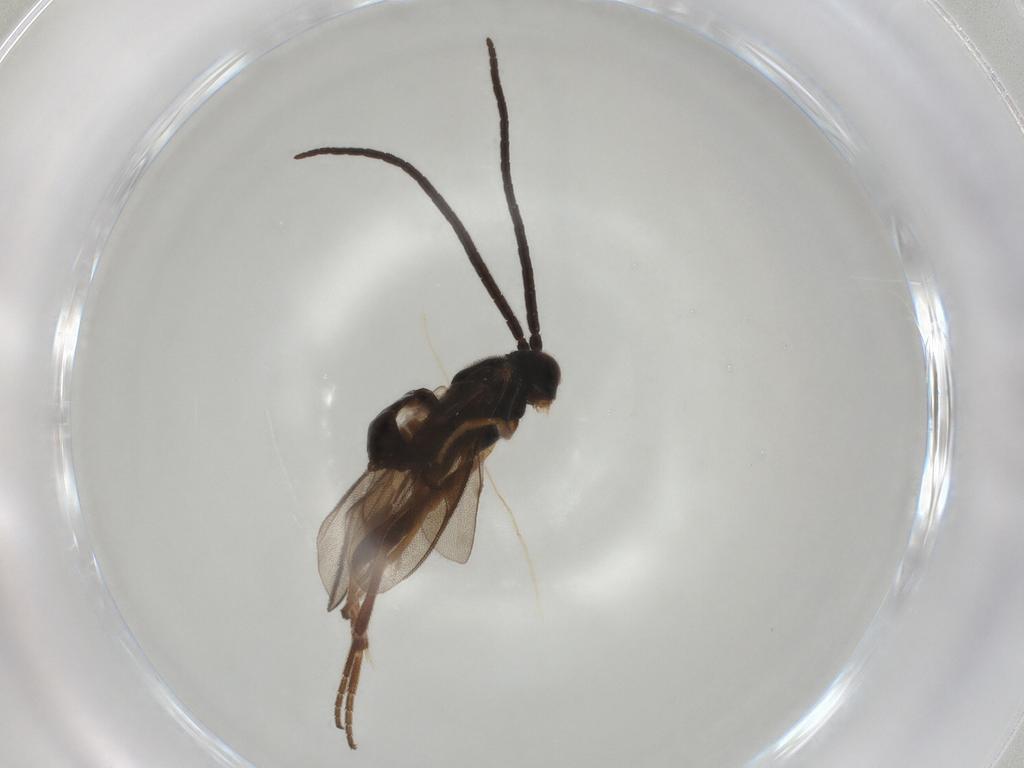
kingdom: Animalia
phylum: Arthropoda
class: Insecta
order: Hymenoptera
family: Braconidae
